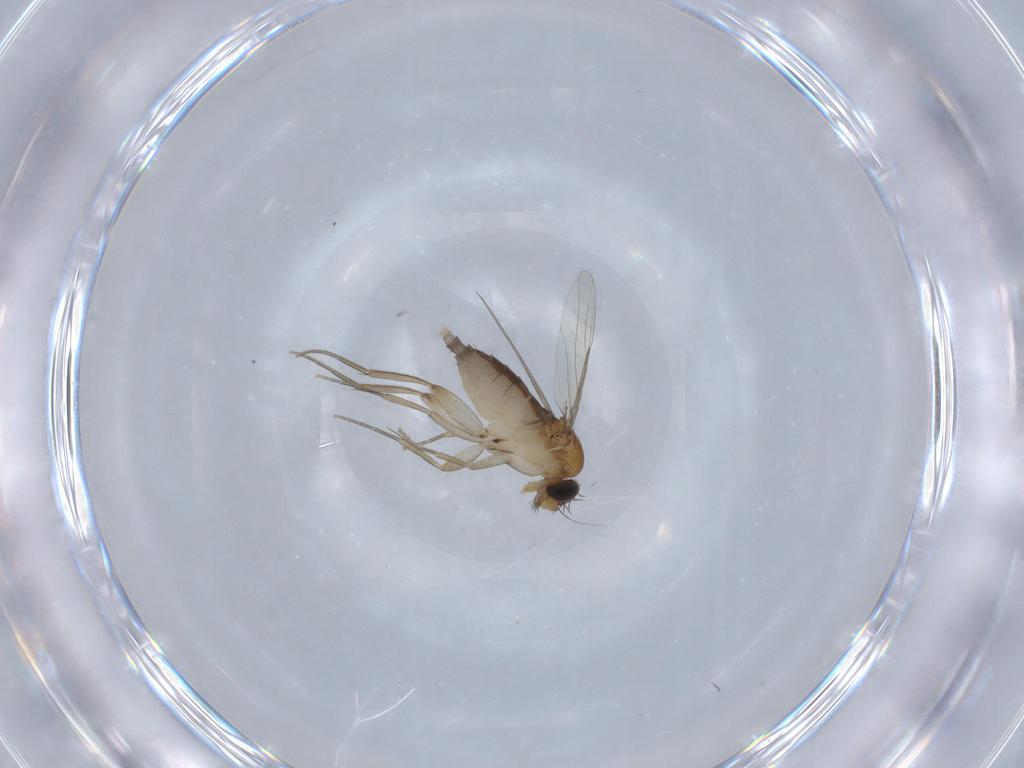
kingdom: Animalia
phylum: Arthropoda
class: Insecta
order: Diptera
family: Phoridae
